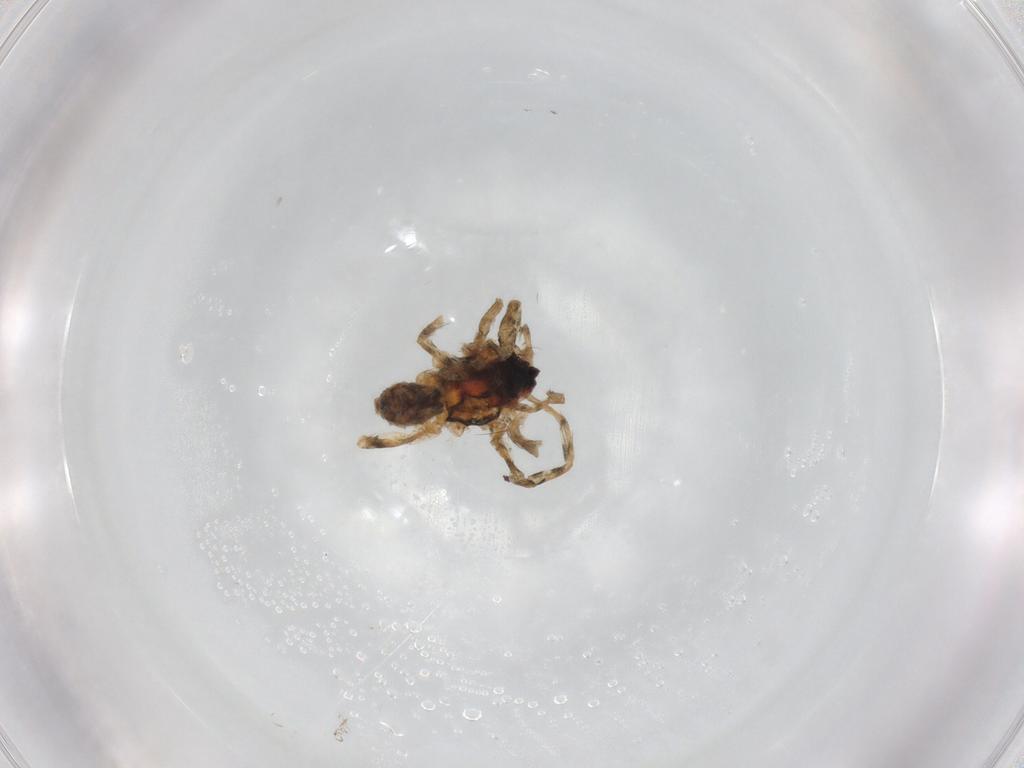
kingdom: Animalia
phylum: Arthropoda
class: Arachnida
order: Araneae
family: Lycosidae
